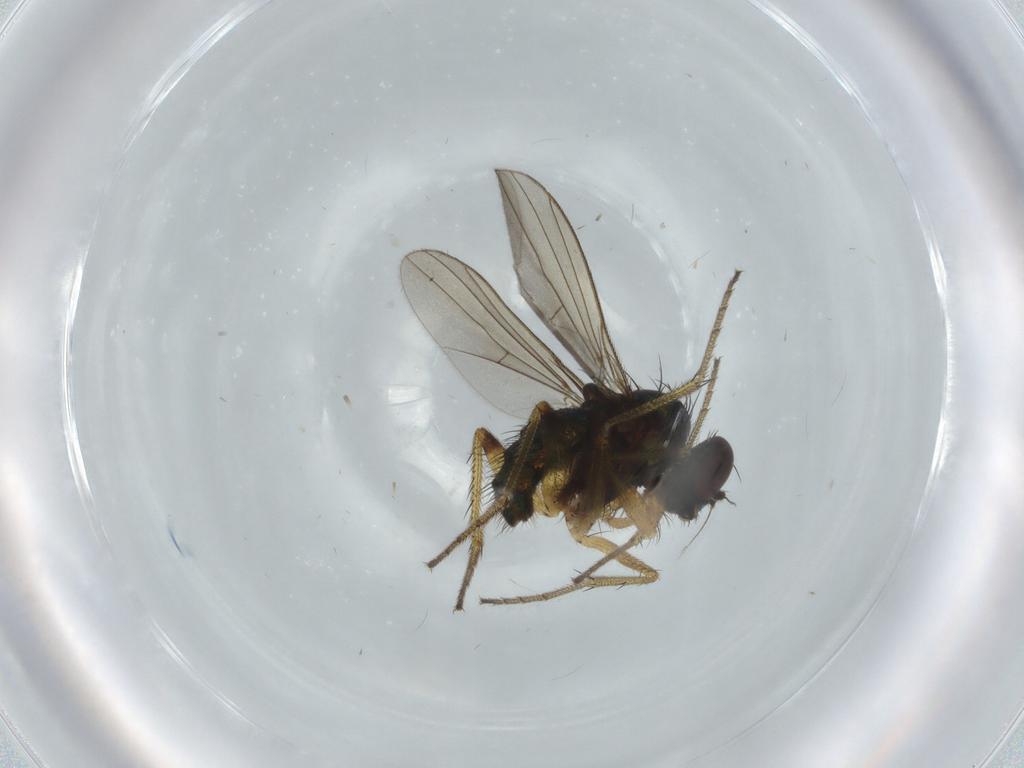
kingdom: Animalia
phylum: Arthropoda
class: Insecta
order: Diptera
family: Dolichopodidae
